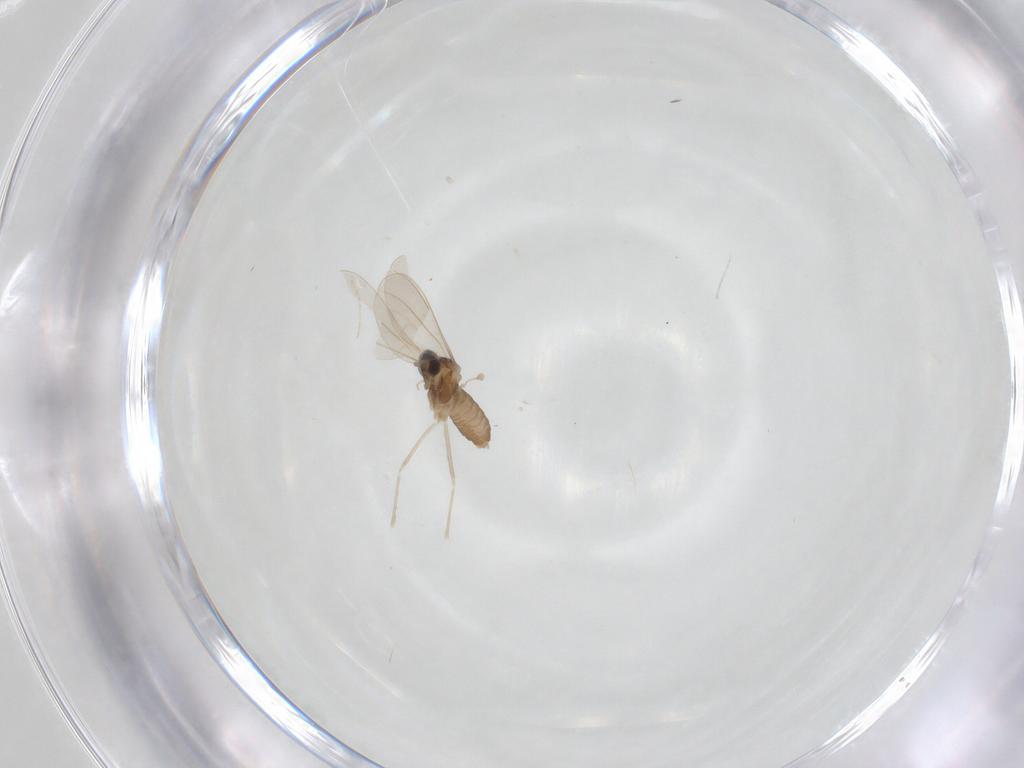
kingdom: Animalia
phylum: Arthropoda
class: Insecta
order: Diptera
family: Cecidomyiidae
